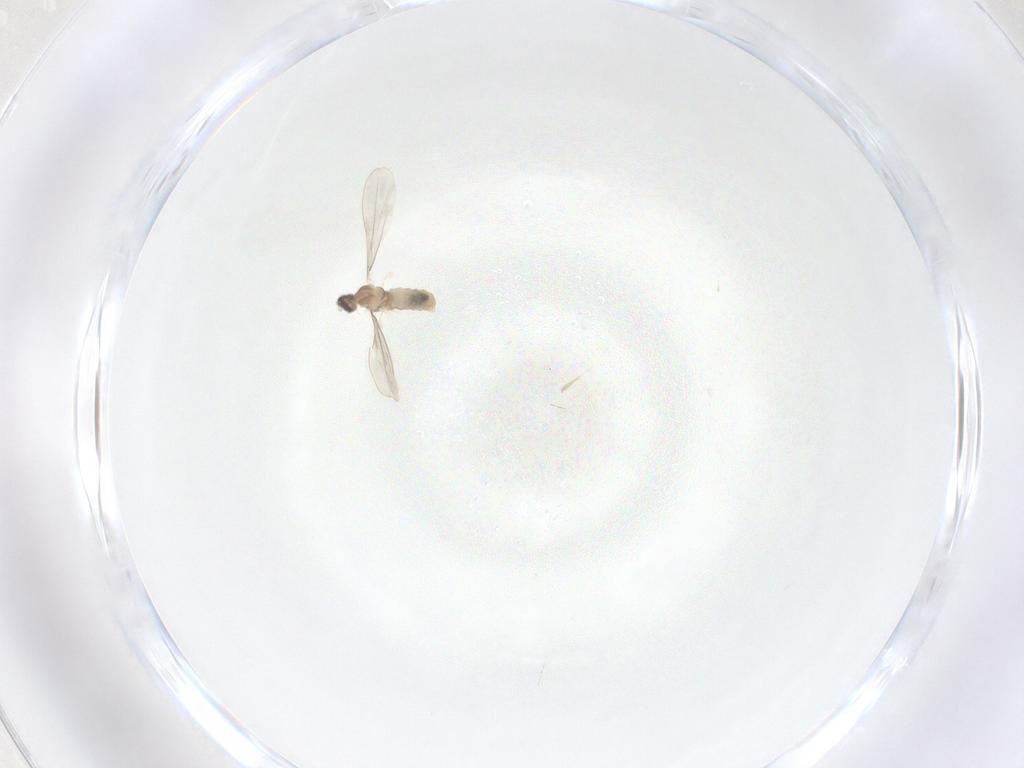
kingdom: Animalia
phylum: Arthropoda
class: Insecta
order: Diptera
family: Cecidomyiidae
